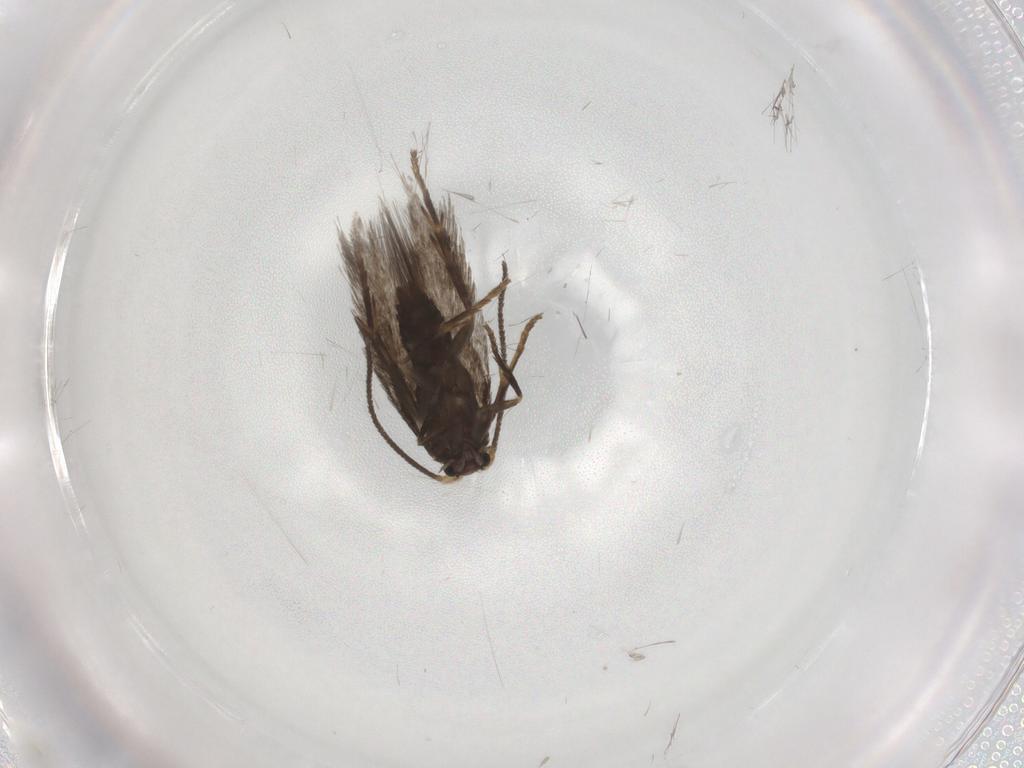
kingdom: Animalia
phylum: Arthropoda
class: Insecta
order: Lepidoptera
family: Nepticulidae
